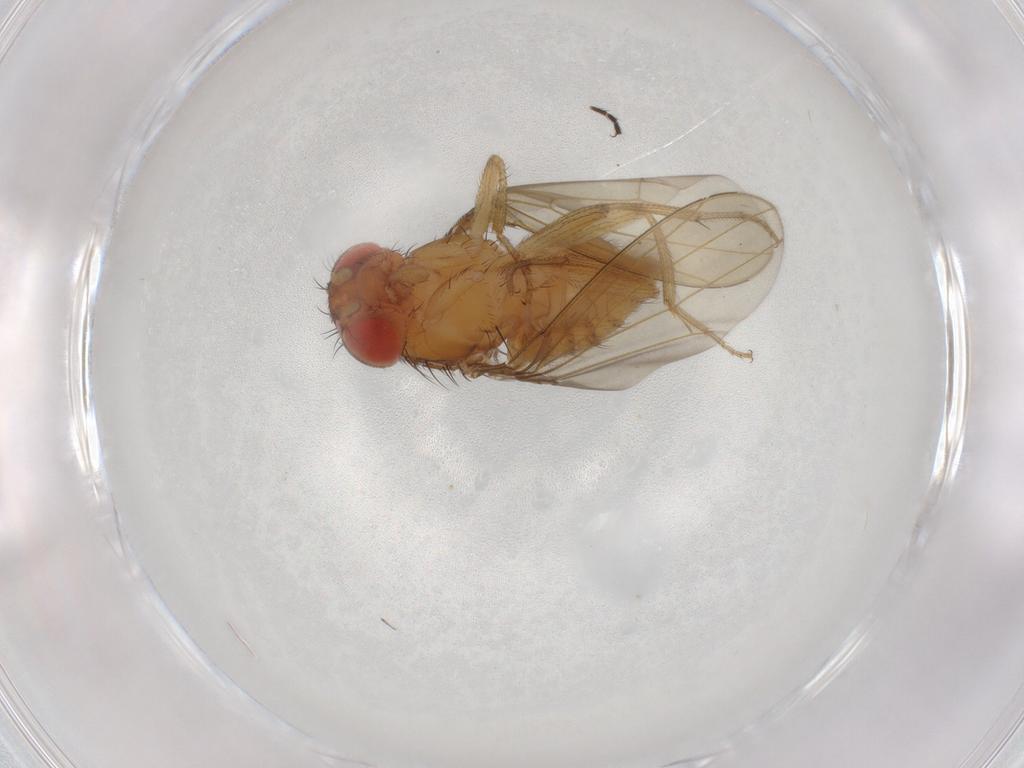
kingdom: Animalia
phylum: Arthropoda
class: Insecta
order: Diptera
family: Drosophilidae
